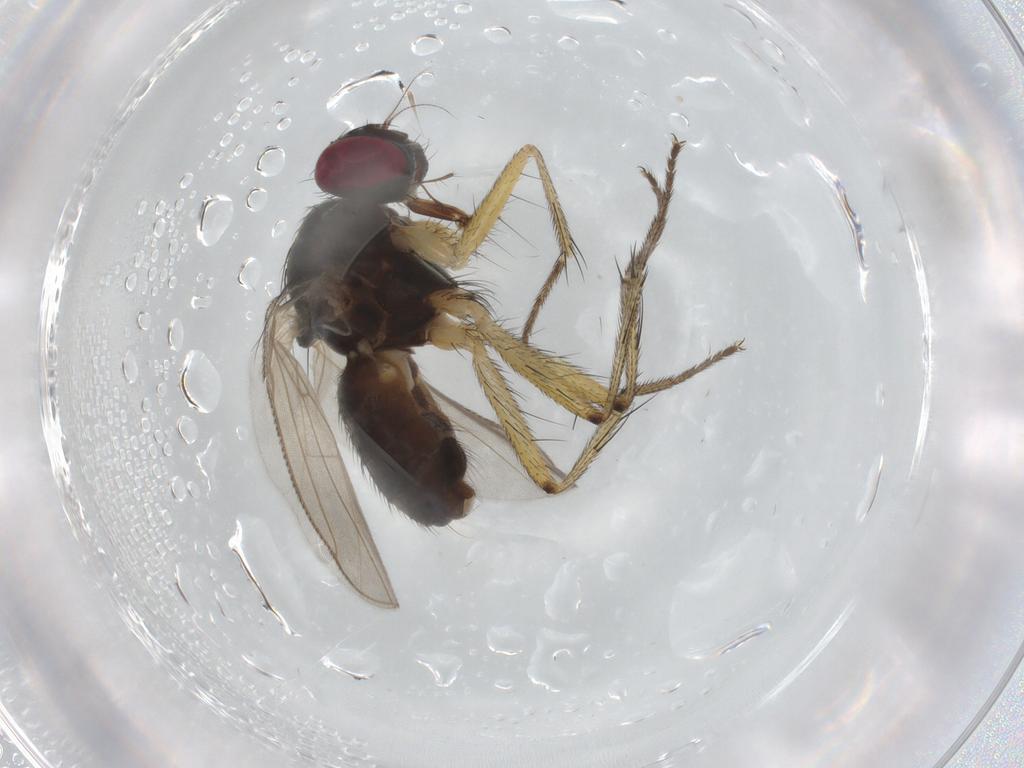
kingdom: Animalia
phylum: Arthropoda
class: Insecta
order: Diptera
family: Muscidae
